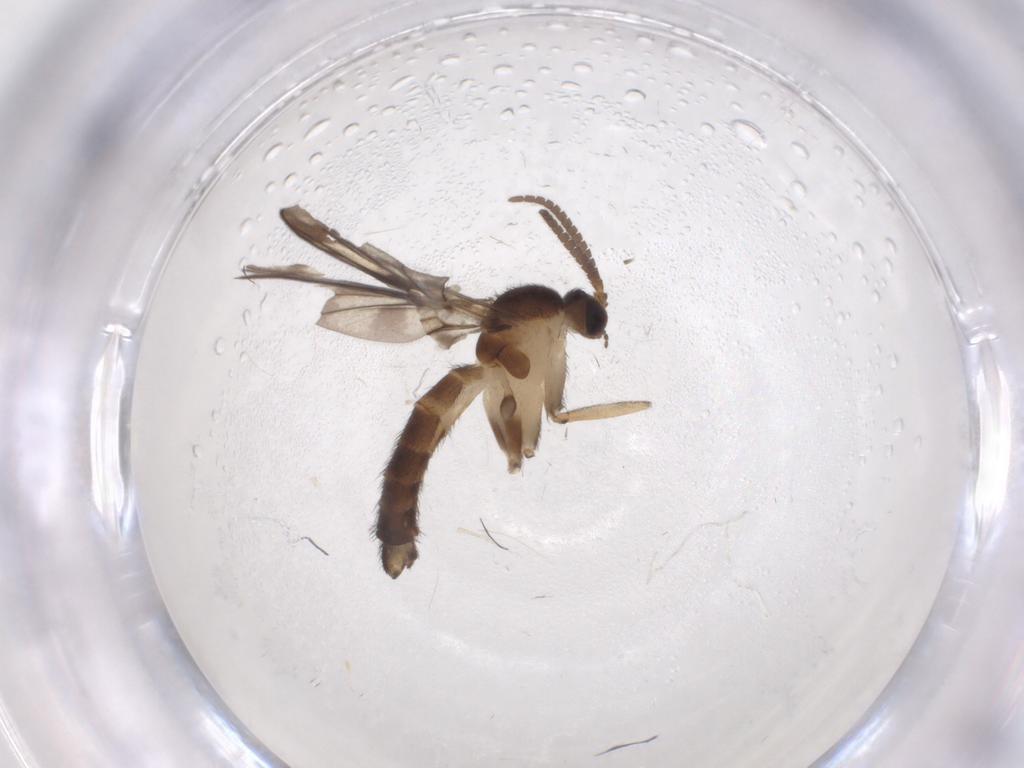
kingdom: Animalia
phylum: Arthropoda
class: Insecta
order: Diptera
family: Keroplatidae
